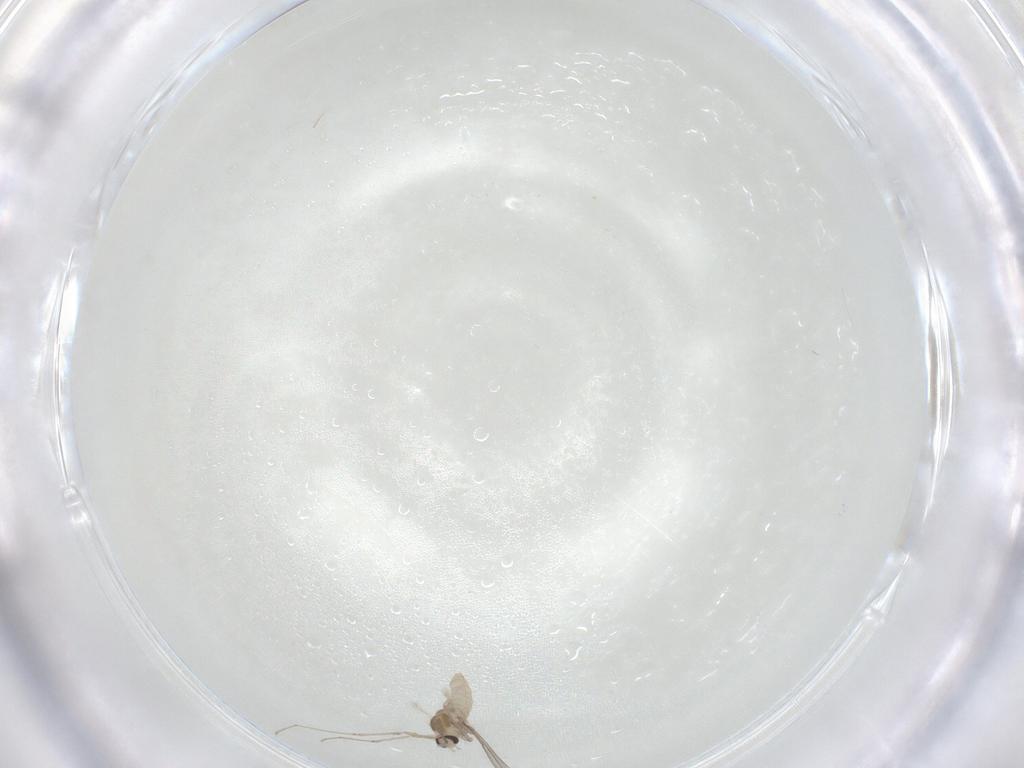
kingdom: Animalia
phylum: Arthropoda
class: Insecta
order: Diptera
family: Cecidomyiidae
